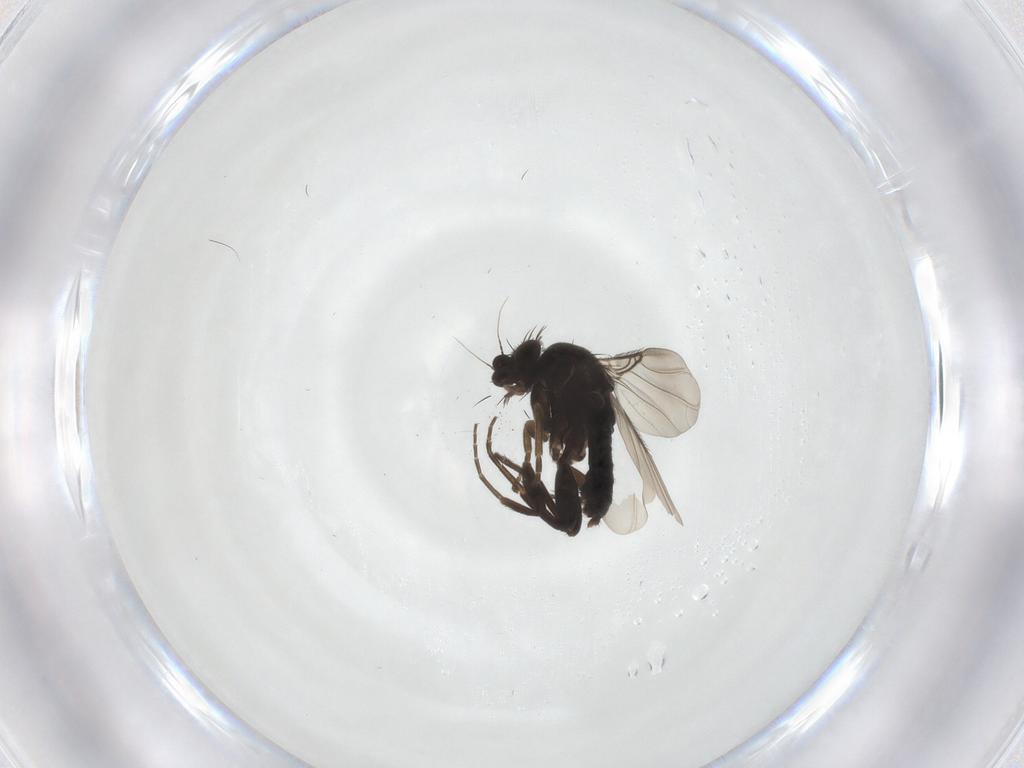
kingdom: Animalia
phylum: Arthropoda
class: Insecta
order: Diptera
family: Phoridae
